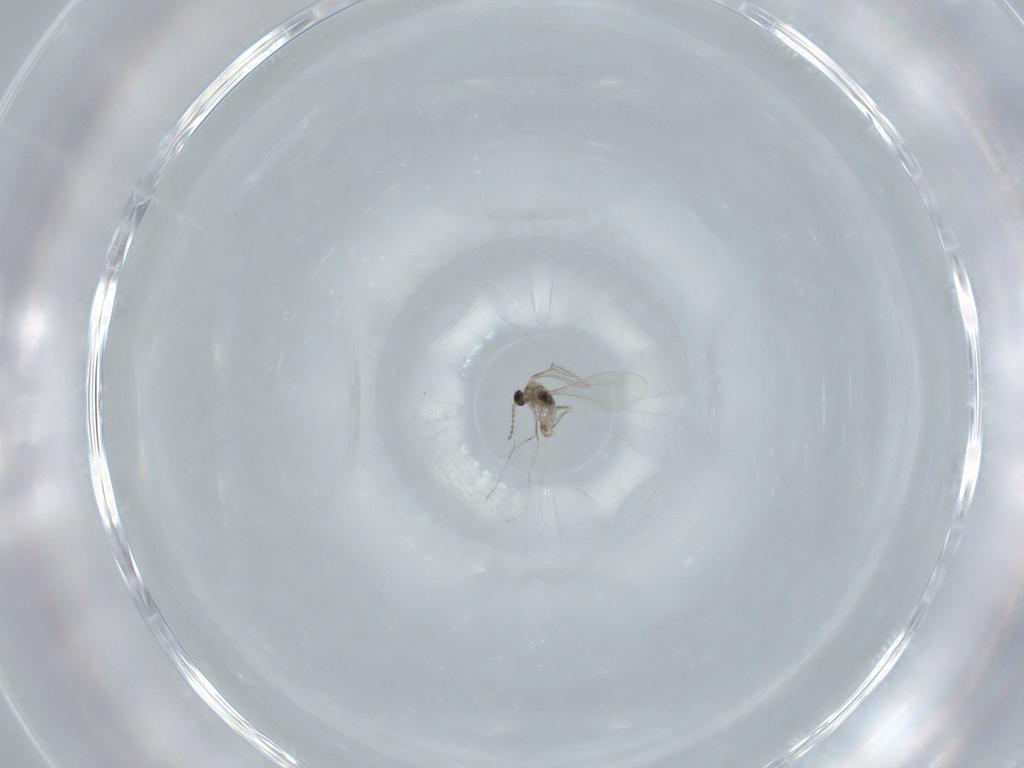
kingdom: Animalia
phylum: Arthropoda
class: Insecta
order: Diptera
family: Cecidomyiidae
